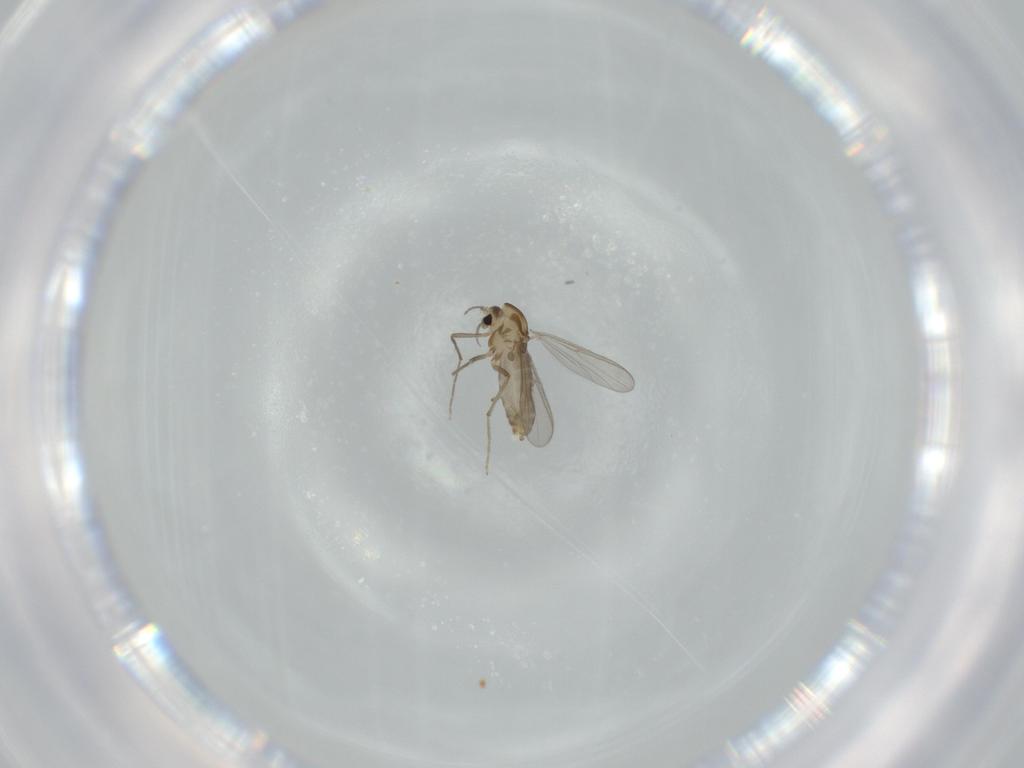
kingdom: Animalia
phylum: Arthropoda
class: Insecta
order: Diptera
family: Chironomidae
